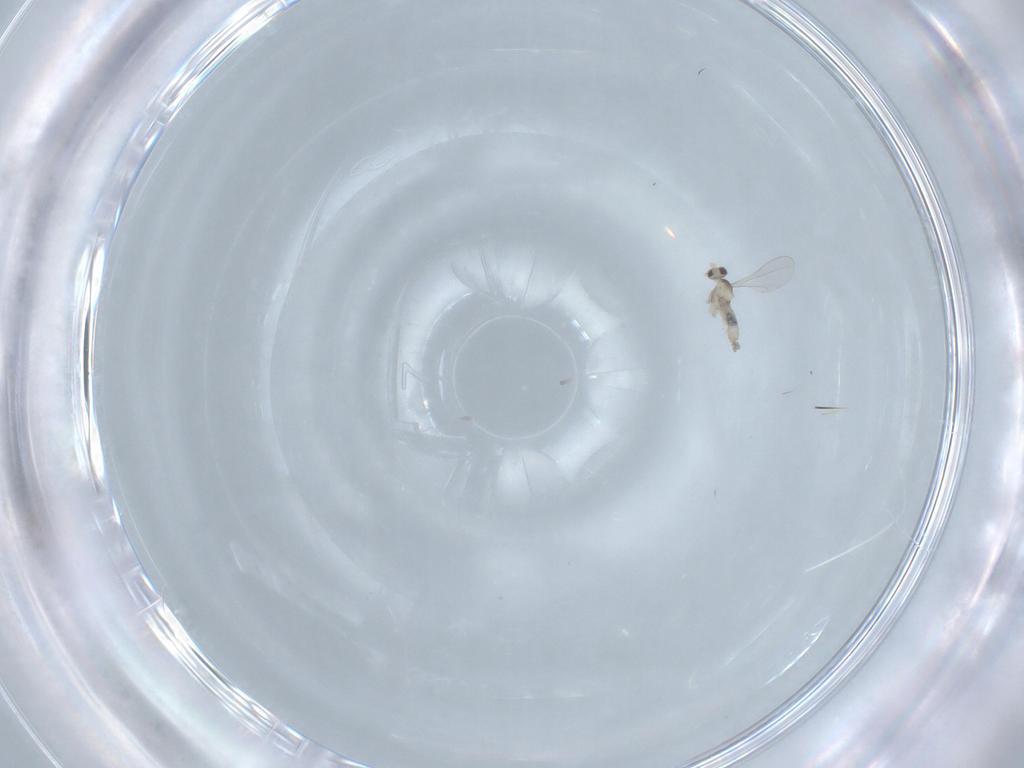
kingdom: Animalia
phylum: Arthropoda
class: Insecta
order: Diptera
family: Cecidomyiidae
